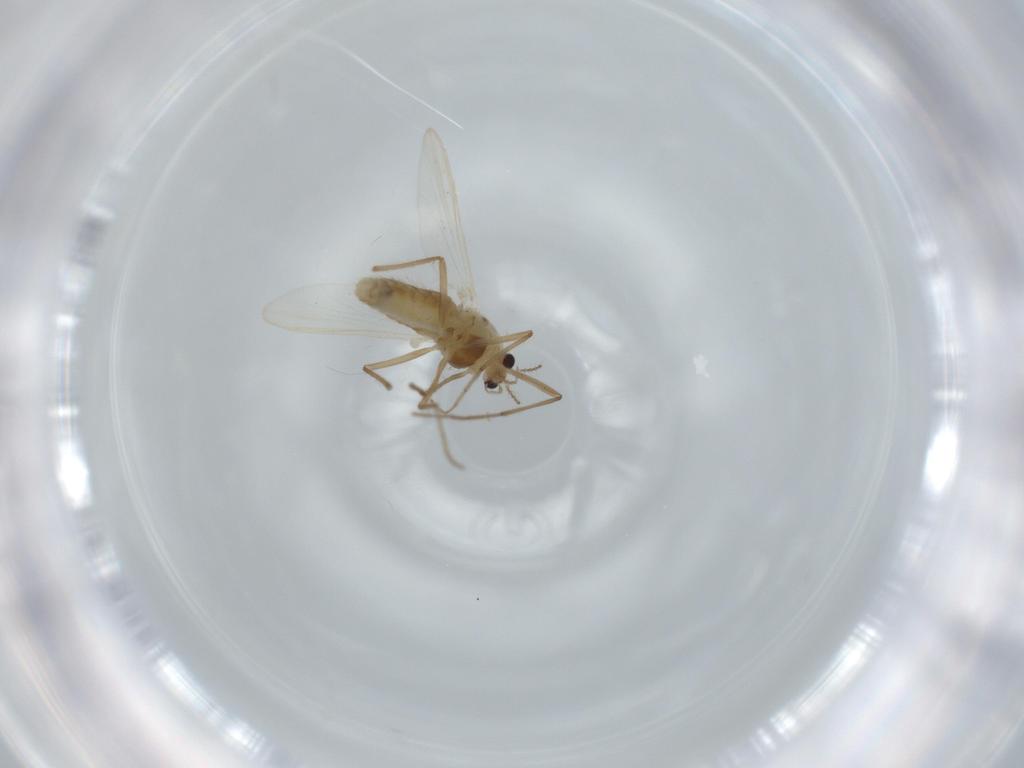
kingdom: Animalia
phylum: Arthropoda
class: Insecta
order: Diptera
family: Chironomidae
